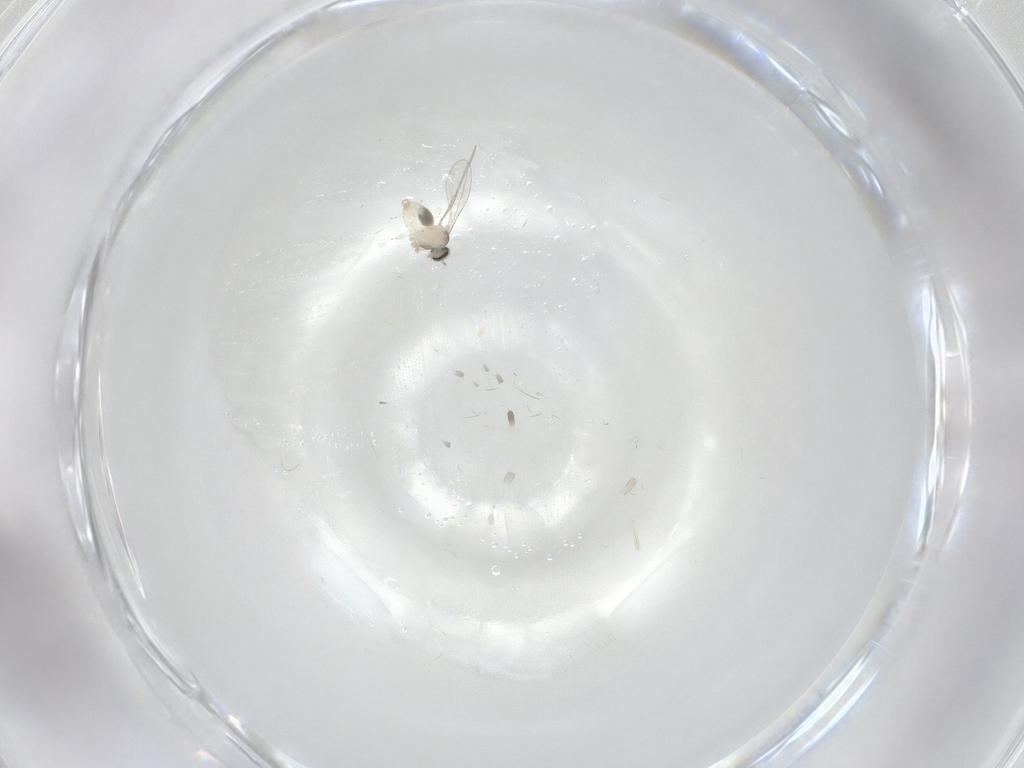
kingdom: Animalia
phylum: Arthropoda
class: Insecta
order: Diptera
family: Cecidomyiidae
